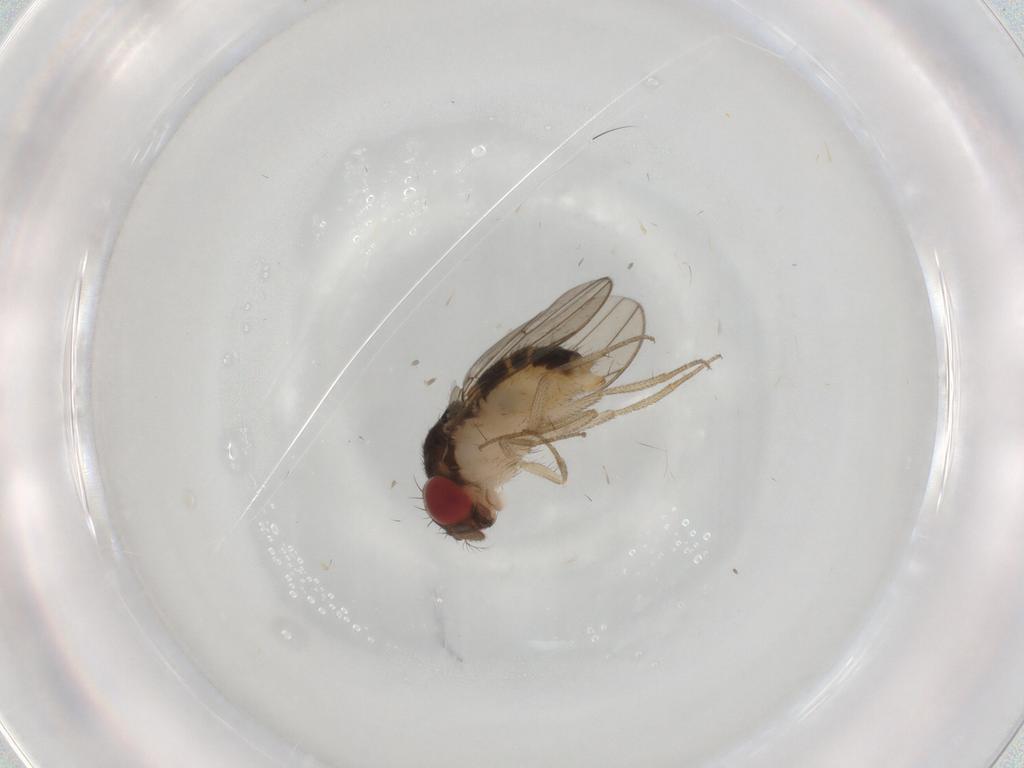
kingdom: Animalia
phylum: Arthropoda
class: Insecta
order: Diptera
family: Drosophilidae
